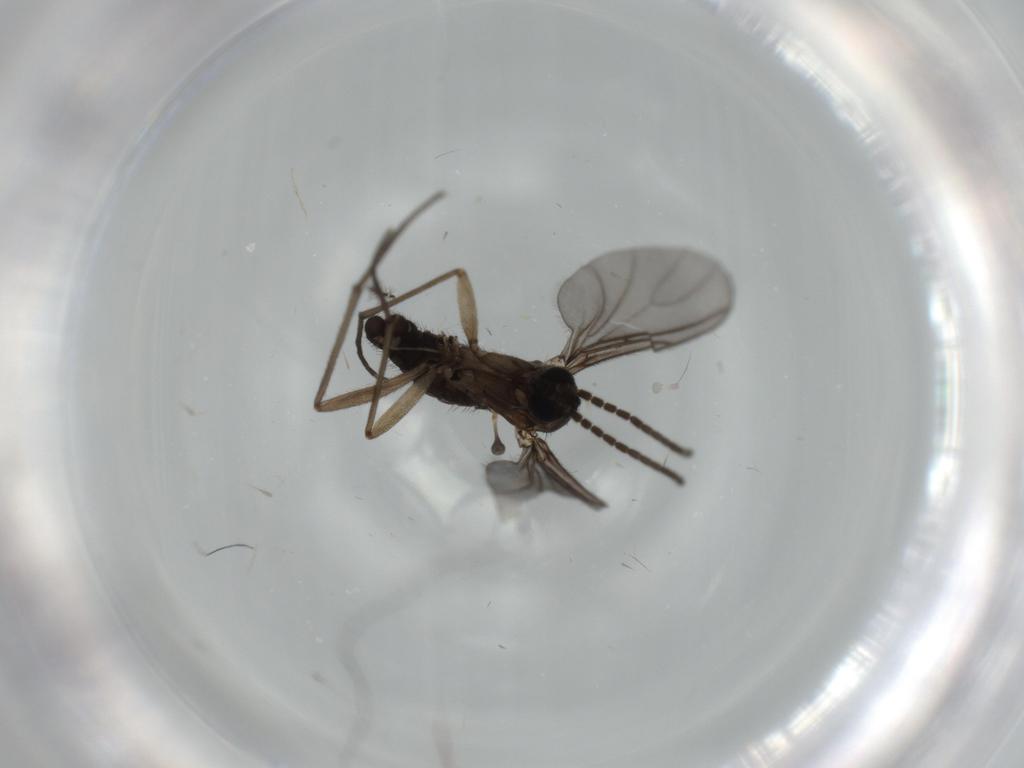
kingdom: Animalia
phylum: Arthropoda
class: Insecta
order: Diptera
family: Sciaridae
